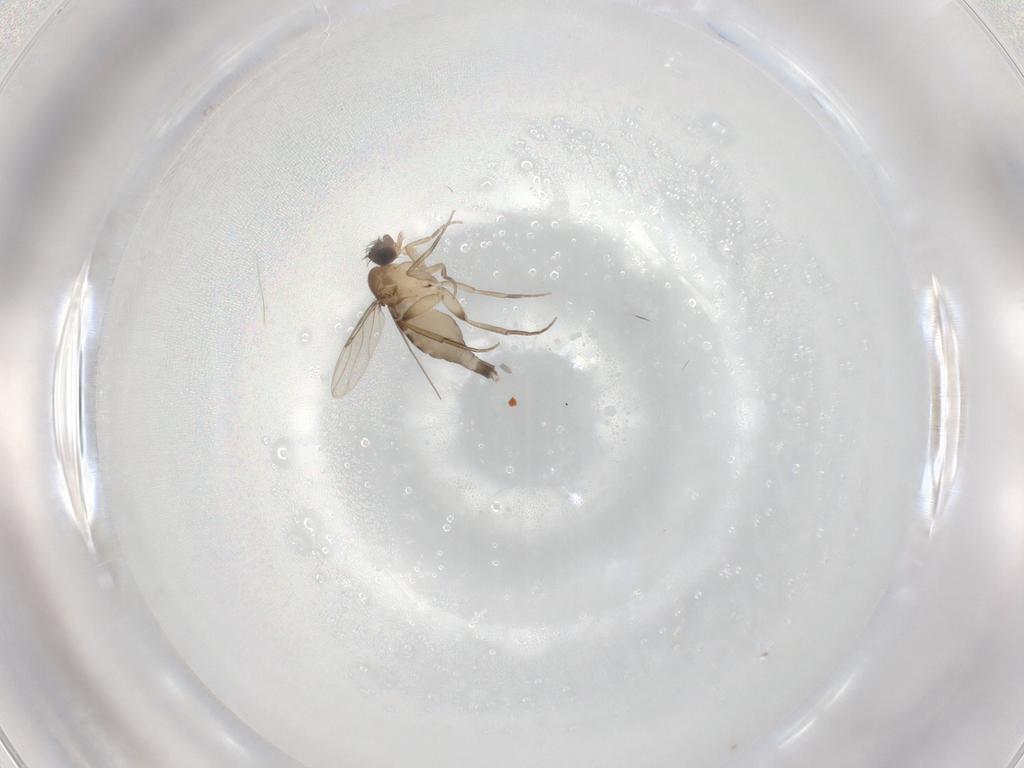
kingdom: Animalia
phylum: Arthropoda
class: Insecta
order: Diptera
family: Phoridae
